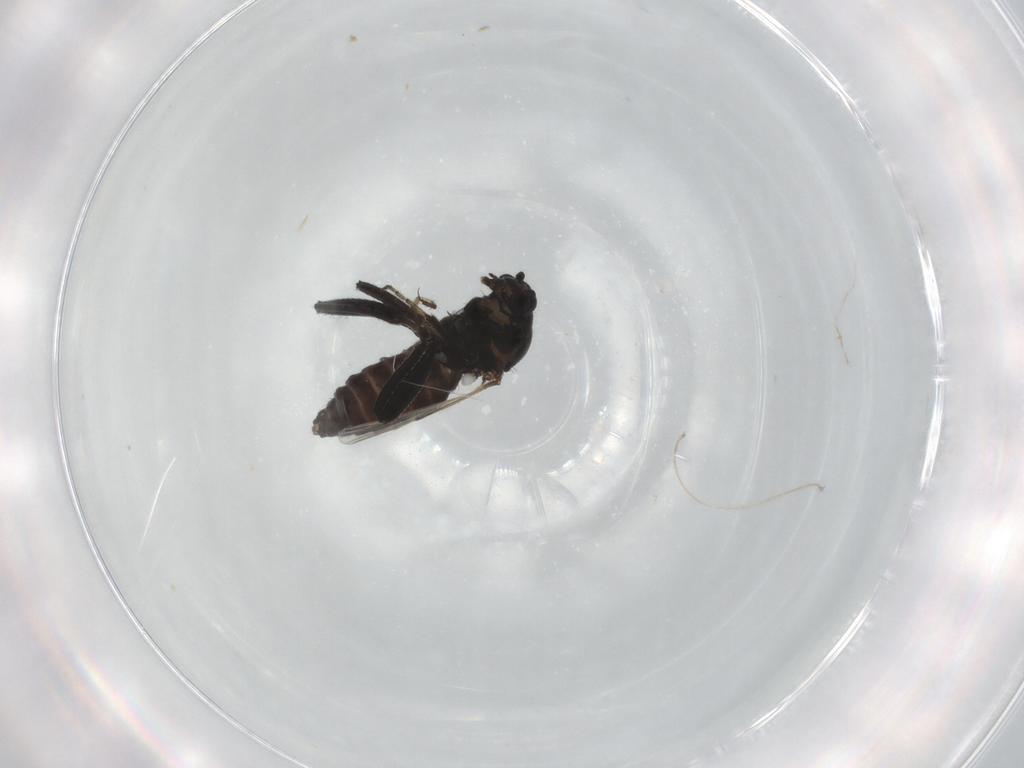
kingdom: Animalia
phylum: Arthropoda
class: Insecta
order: Diptera
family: Ceratopogonidae
